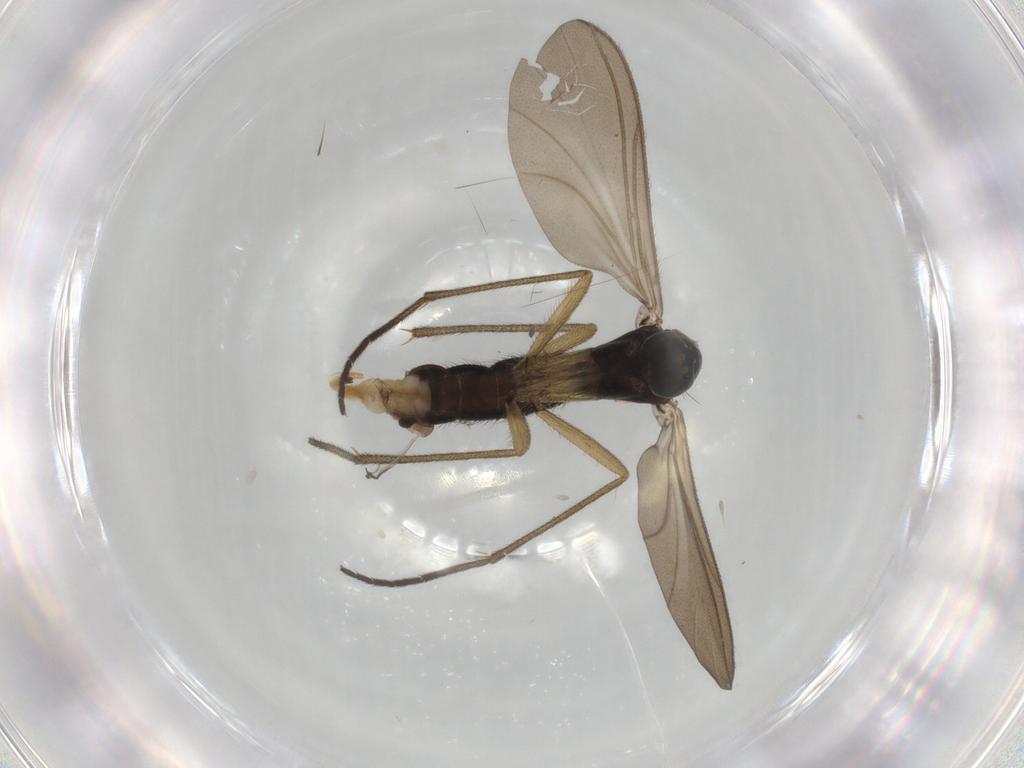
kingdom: Animalia
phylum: Arthropoda
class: Insecta
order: Diptera
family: Sciaridae
